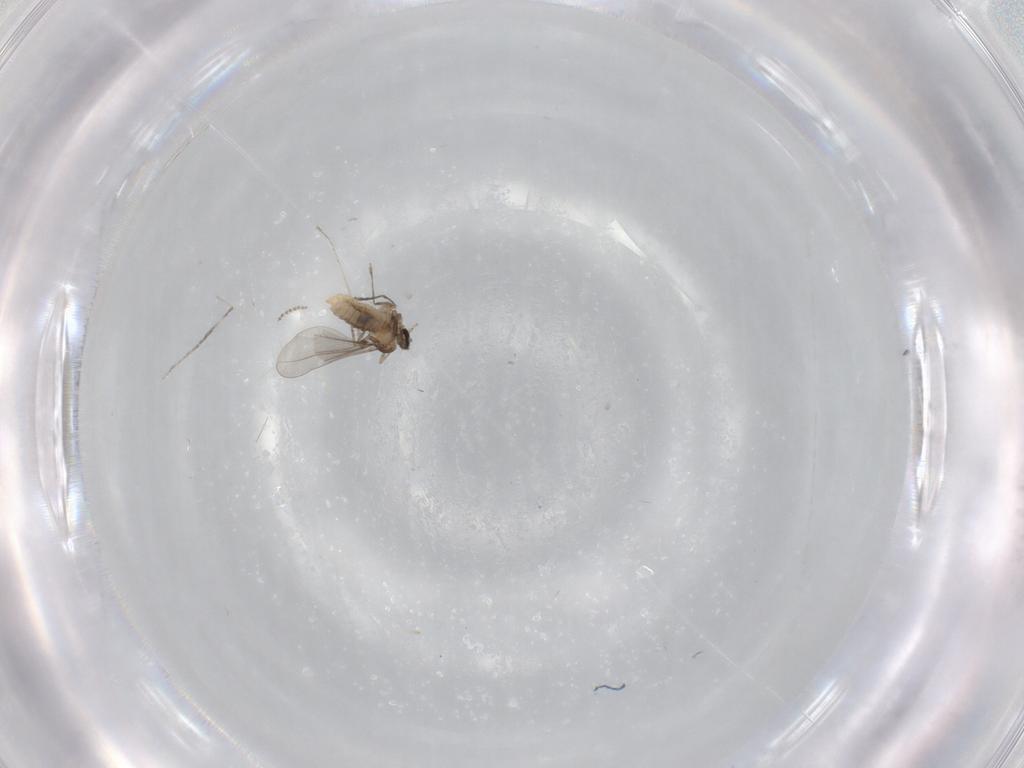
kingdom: Animalia
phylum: Arthropoda
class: Insecta
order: Diptera
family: Cecidomyiidae
